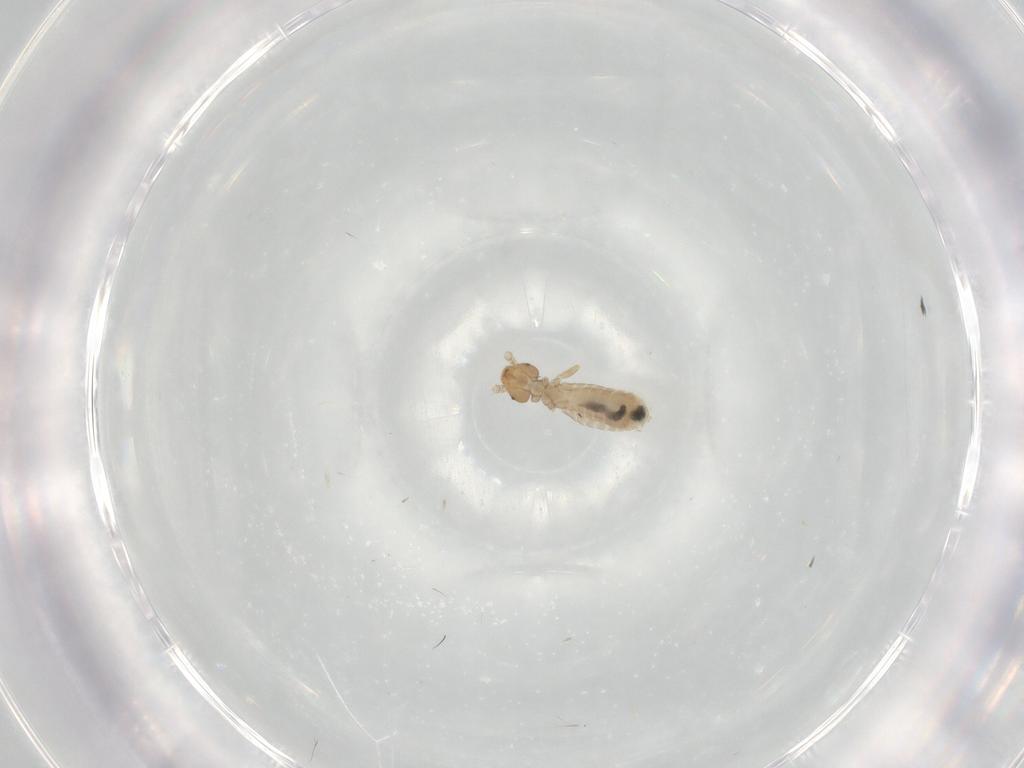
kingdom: Animalia
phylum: Arthropoda
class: Insecta
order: Psocodea
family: Liposcelididae
